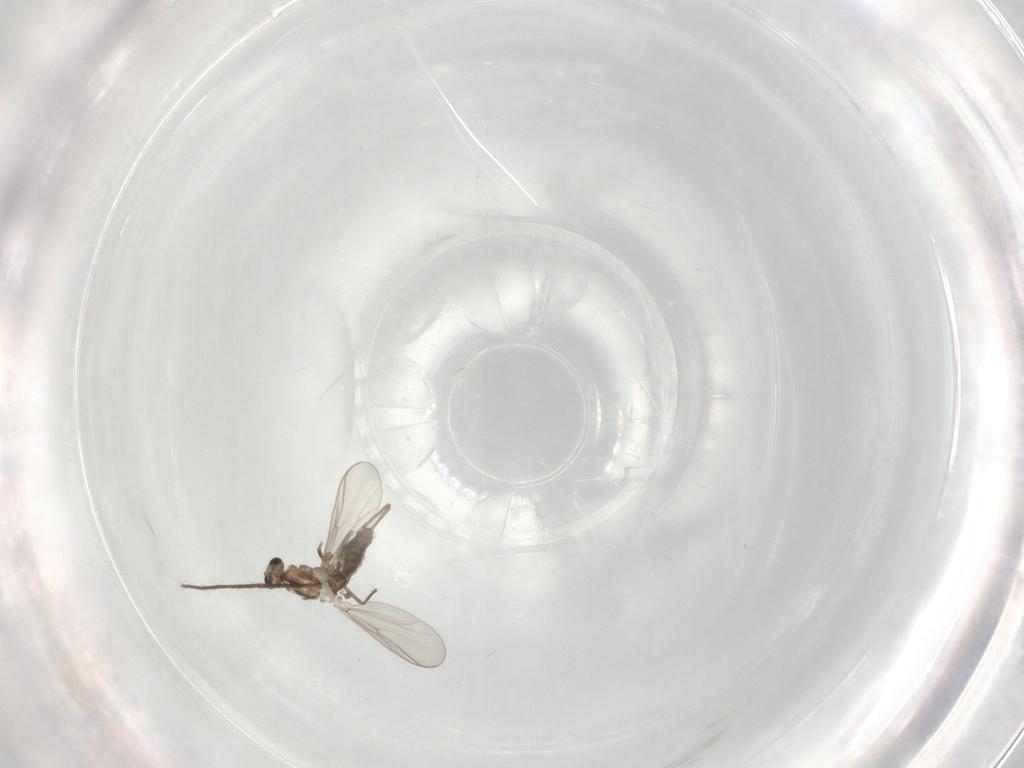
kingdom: Animalia
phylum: Arthropoda
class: Insecta
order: Diptera
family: Chironomidae
